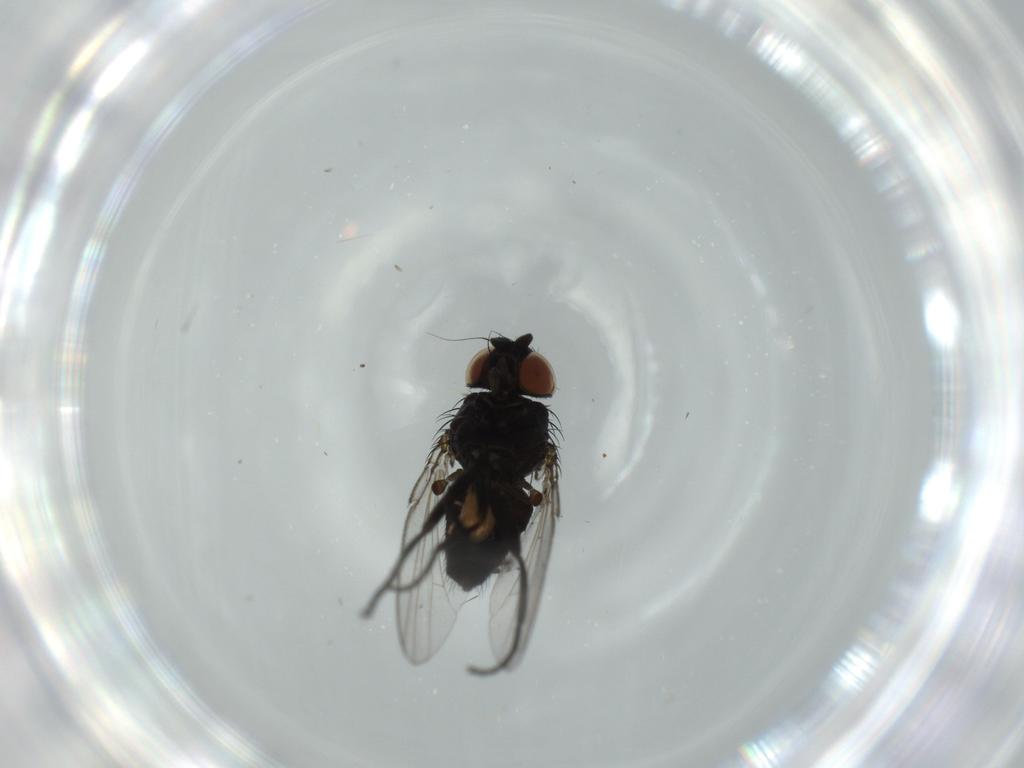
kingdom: Animalia
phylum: Arthropoda
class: Insecta
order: Diptera
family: Milichiidae
